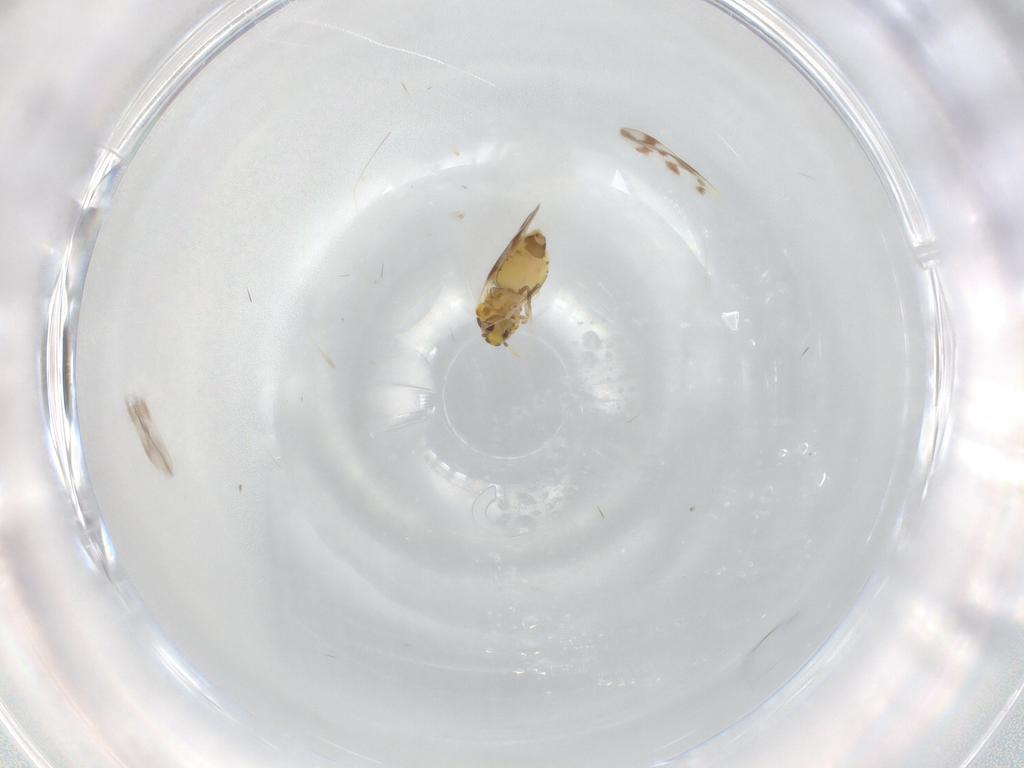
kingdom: Animalia
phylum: Arthropoda
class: Insecta
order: Hemiptera
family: Aleyrodidae
